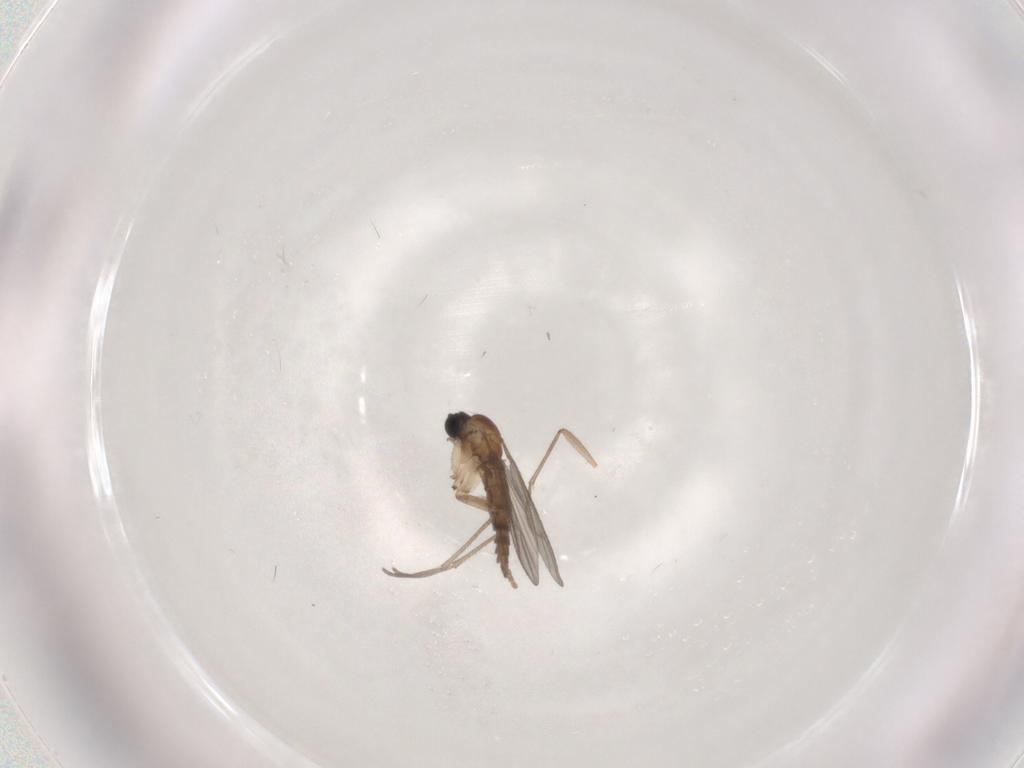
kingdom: Animalia
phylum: Arthropoda
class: Insecta
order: Diptera
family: Sciaridae
